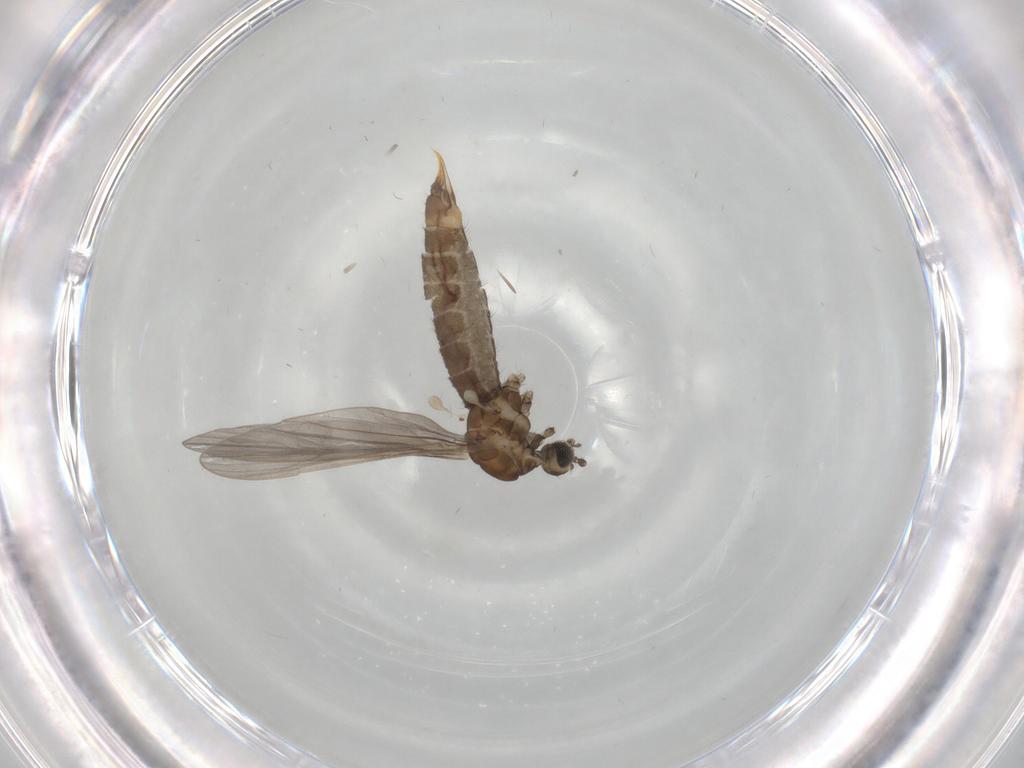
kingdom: Animalia
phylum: Arthropoda
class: Insecta
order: Diptera
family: Limoniidae
